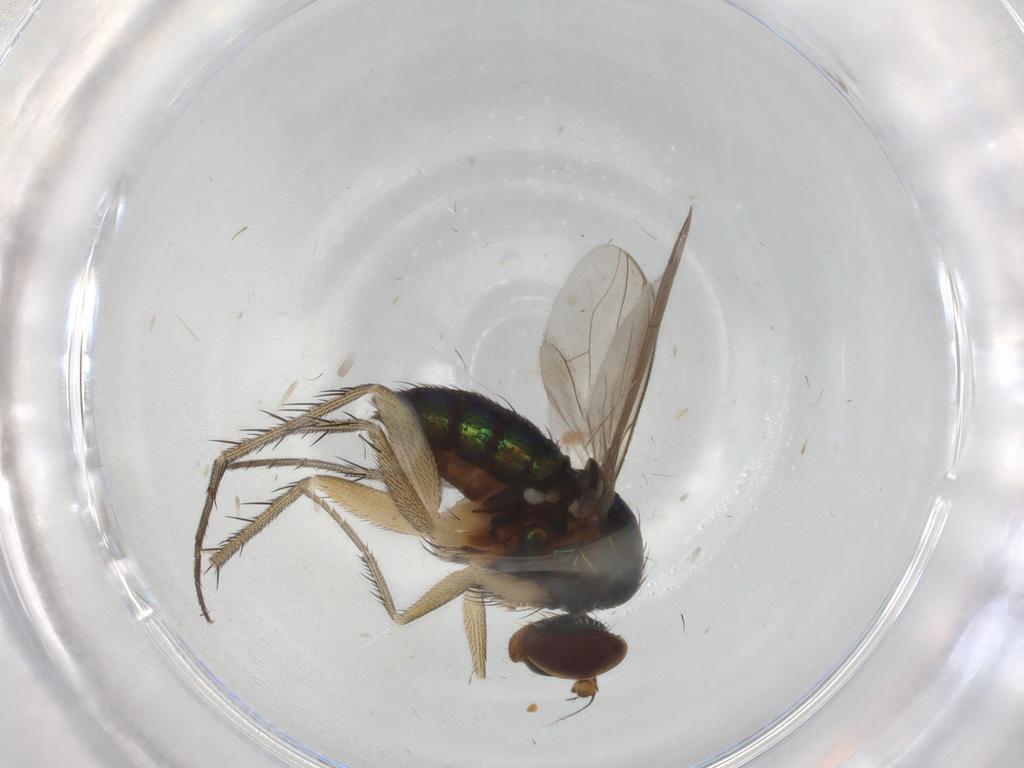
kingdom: Animalia
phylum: Arthropoda
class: Insecta
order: Diptera
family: Dolichopodidae
